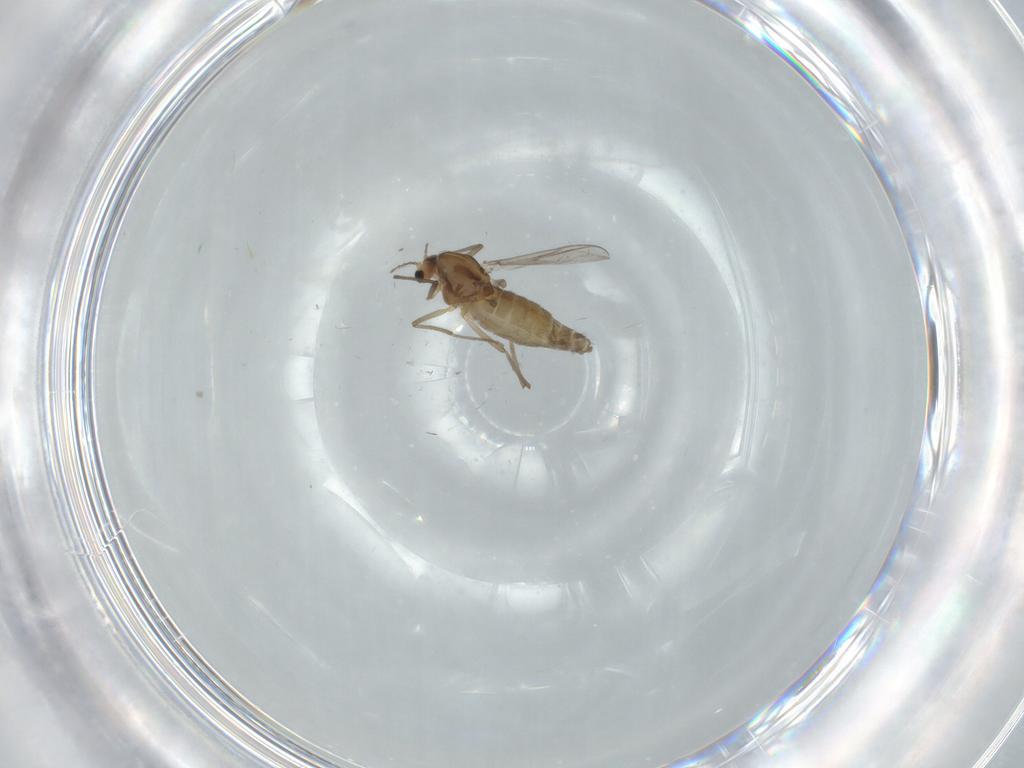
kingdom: Animalia
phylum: Arthropoda
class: Insecta
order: Diptera
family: Chironomidae
